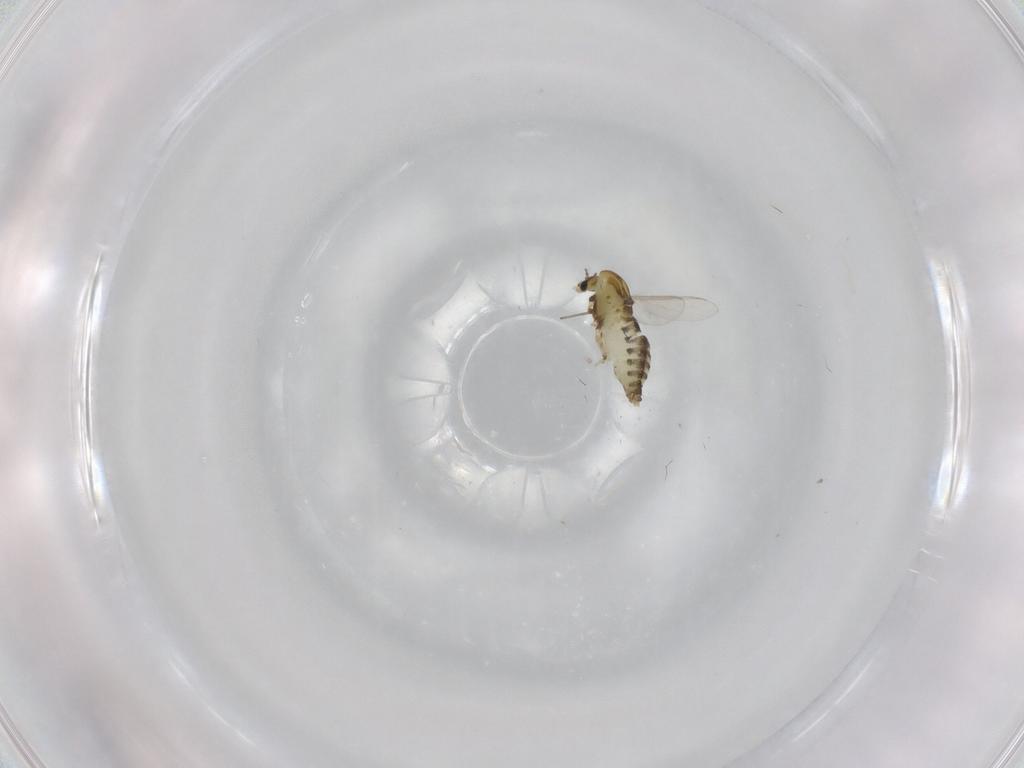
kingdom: Animalia
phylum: Arthropoda
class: Insecta
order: Diptera
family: Chironomidae
